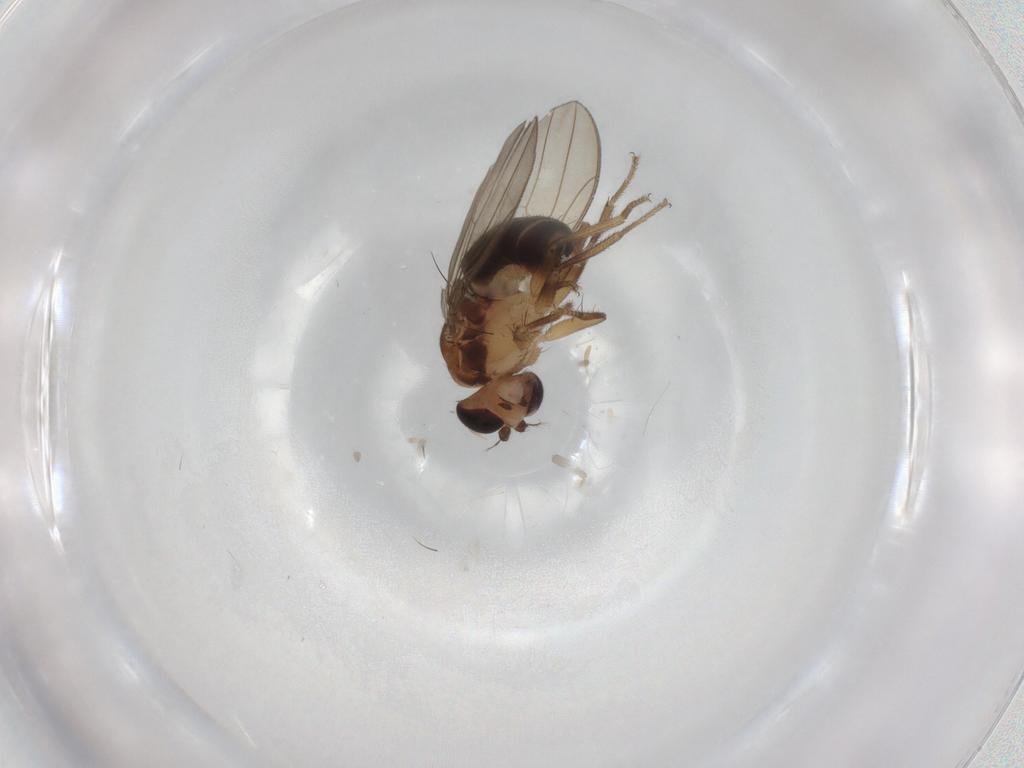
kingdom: Animalia
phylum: Arthropoda
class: Insecta
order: Diptera
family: Drosophilidae
